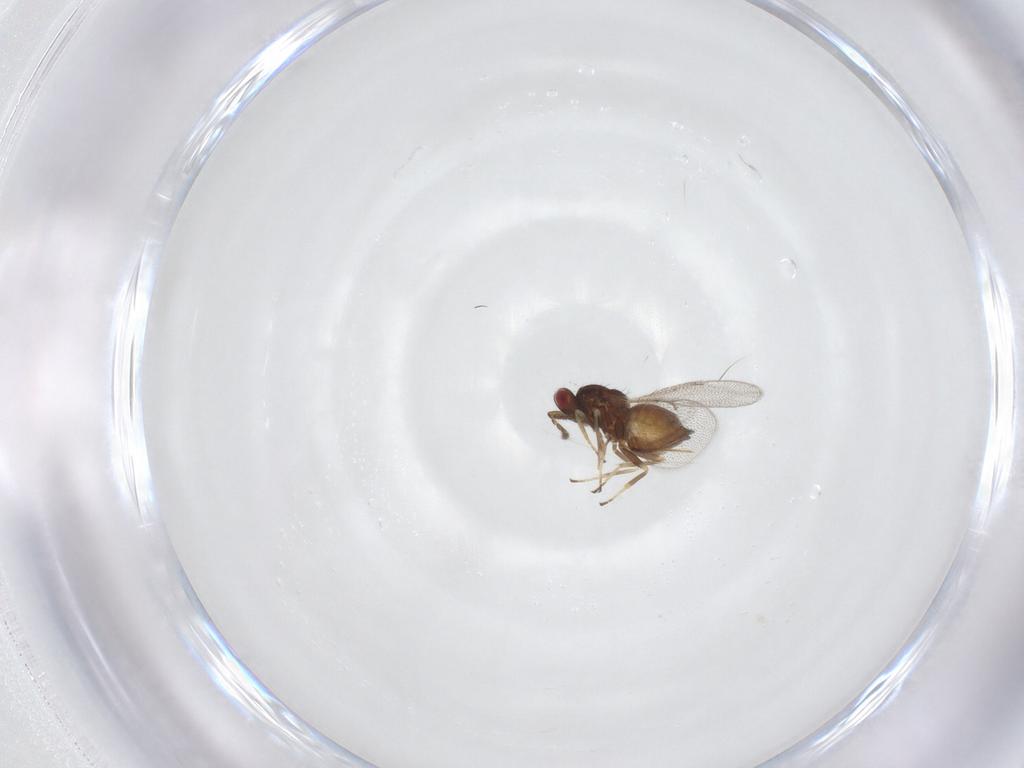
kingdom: Animalia
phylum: Arthropoda
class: Insecta
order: Hymenoptera
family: Eulophidae
